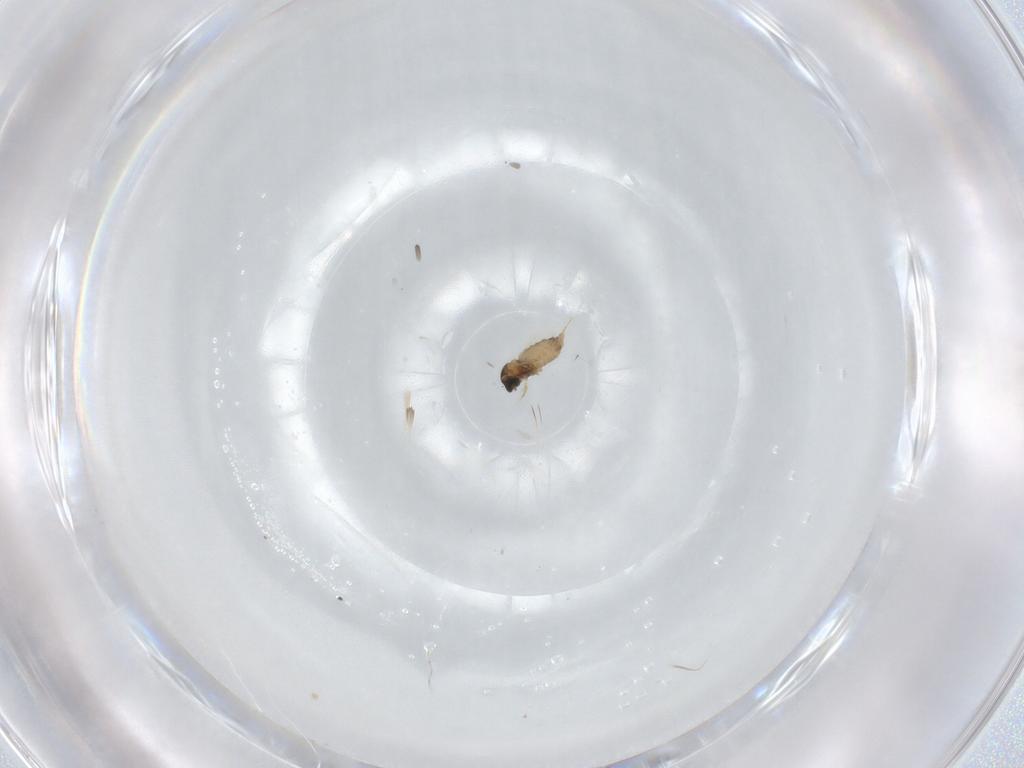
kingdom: Animalia
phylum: Arthropoda
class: Insecta
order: Diptera
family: Cecidomyiidae
